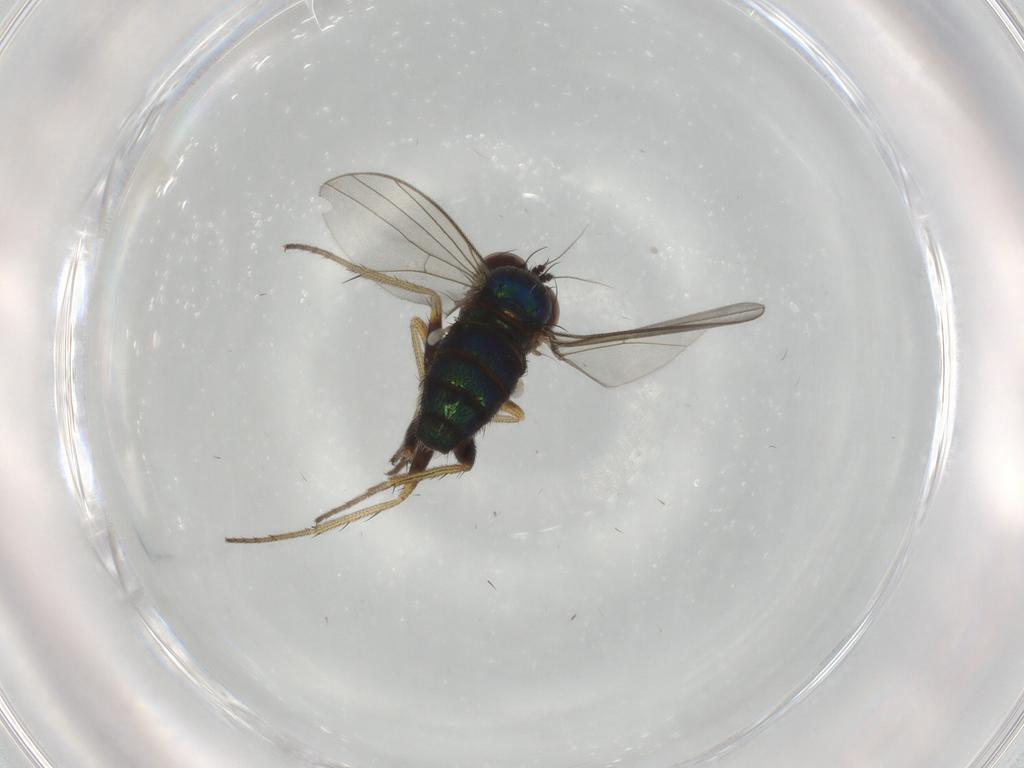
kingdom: Animalia
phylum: Arthropoda
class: Insecta
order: Diptera
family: Dolichopodidae
